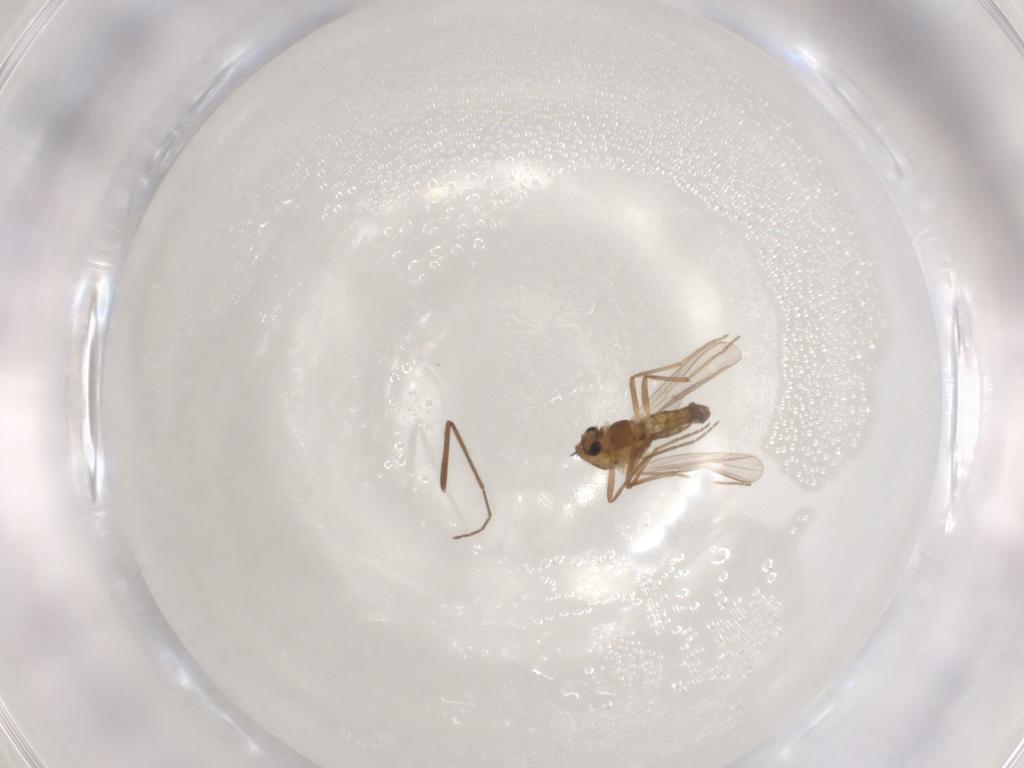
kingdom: Animalia
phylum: Arthropoda
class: Insecta
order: Diptera
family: Chironomidae
